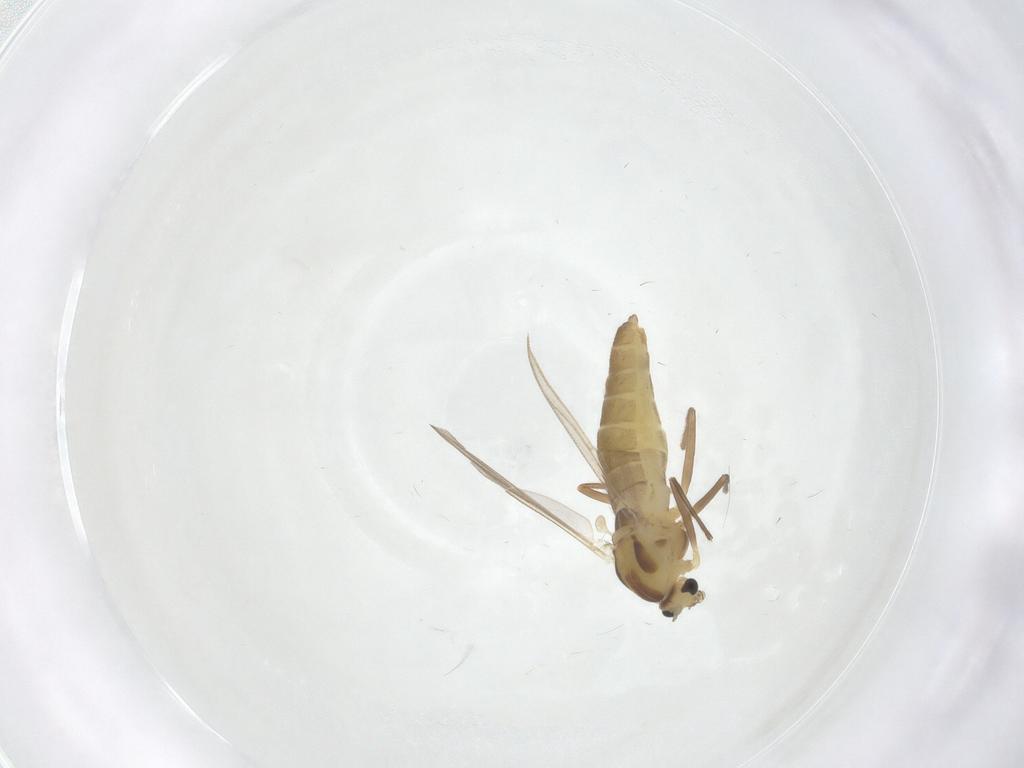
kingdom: Animalia
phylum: Arthropoda
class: Insecta
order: Diptera
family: Chironomidae
